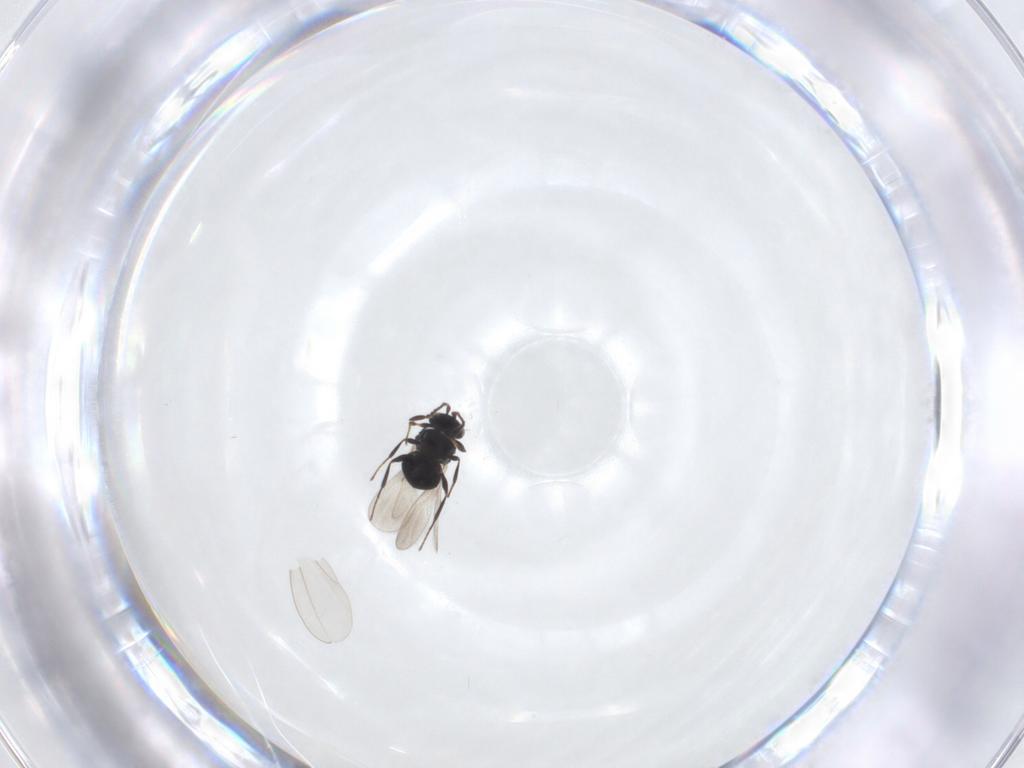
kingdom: Animalia
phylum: Arthropoda
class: Insecta
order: Hymenoptera
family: Platygastridae
